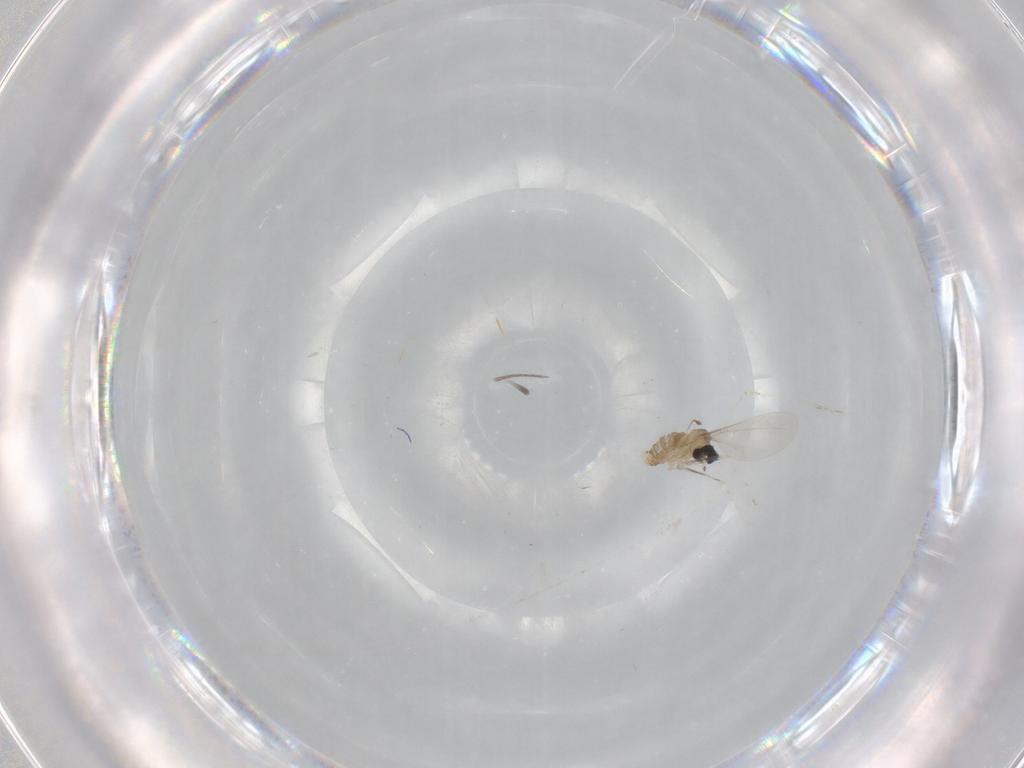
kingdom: Animalia
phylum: Arthropoda
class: Insecta
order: Diptera
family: Cecidomyiidae
